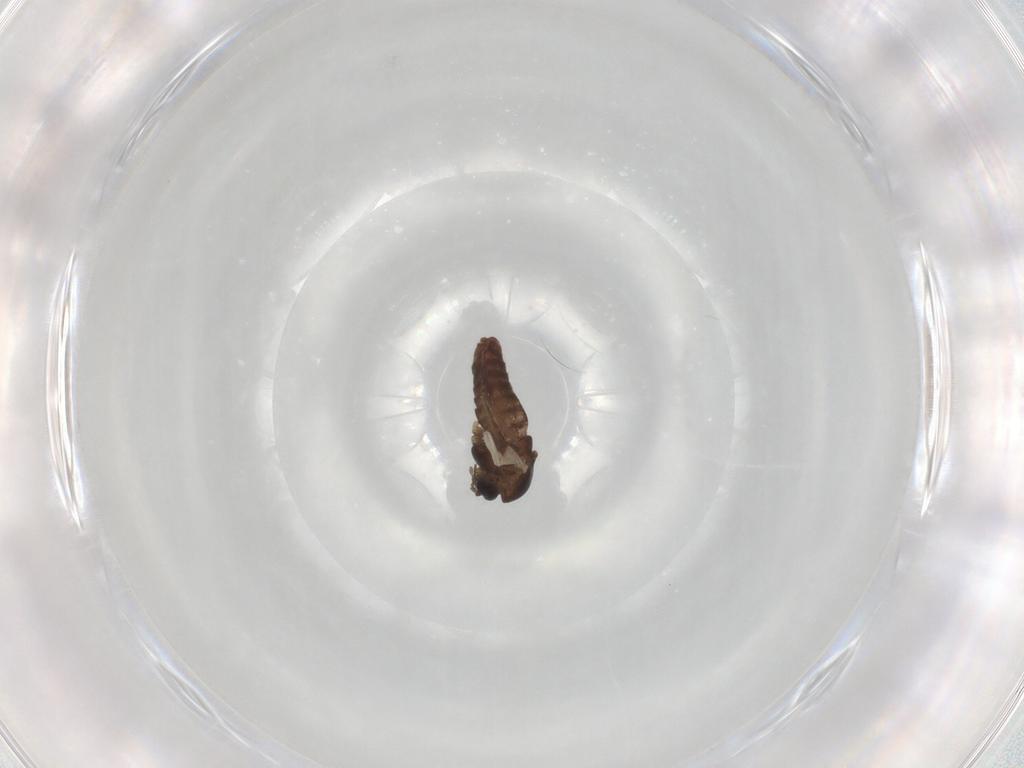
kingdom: Animalia
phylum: Arthropoda
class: Insecta
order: Diptera
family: Chironomidae
